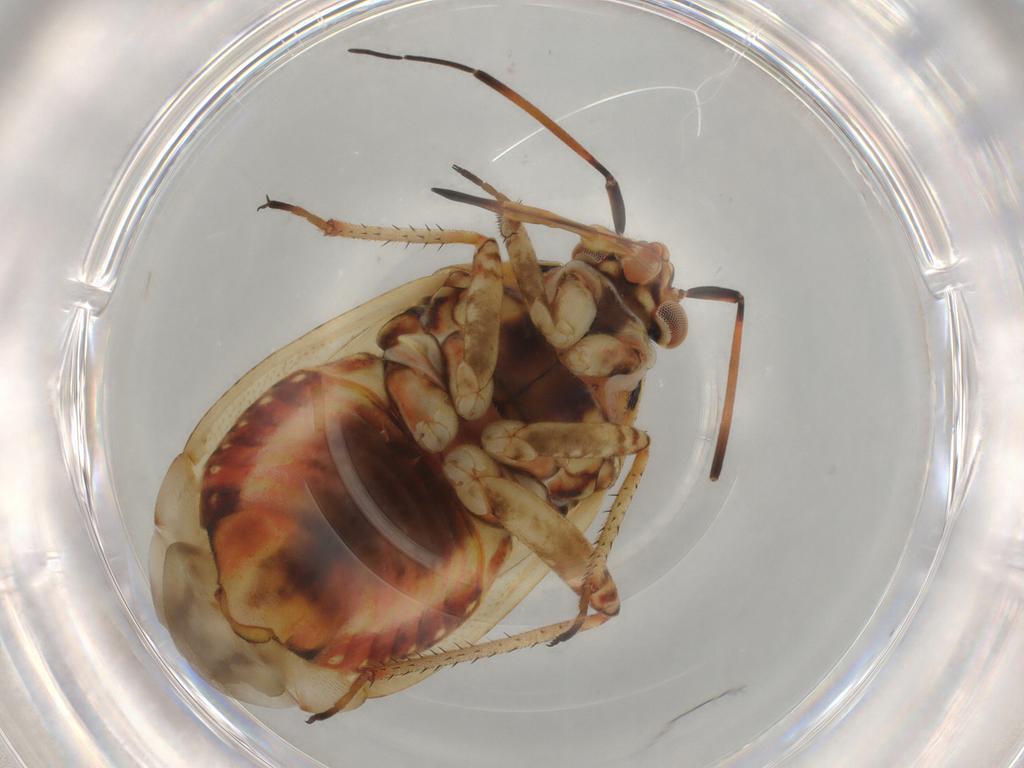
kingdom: Animalia
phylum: Arthropoda
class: Insecta
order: Hemiptera
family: Miridae
